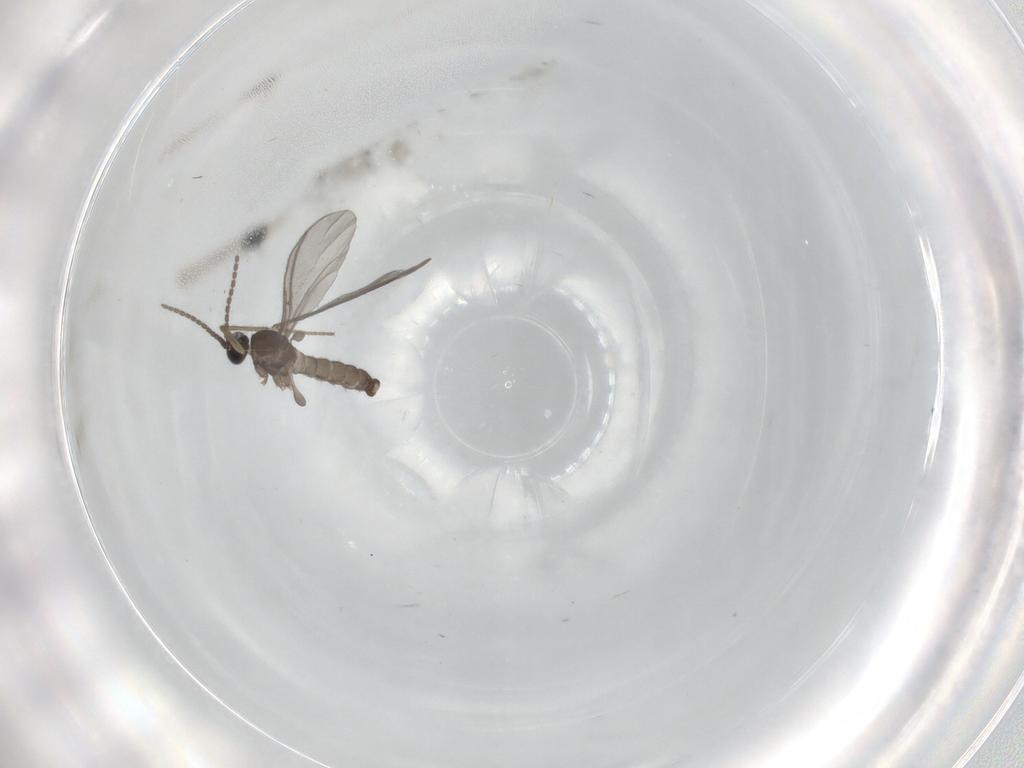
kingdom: Animalia
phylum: Arthropoda
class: Insecta
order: Diptera
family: Sciaridae
